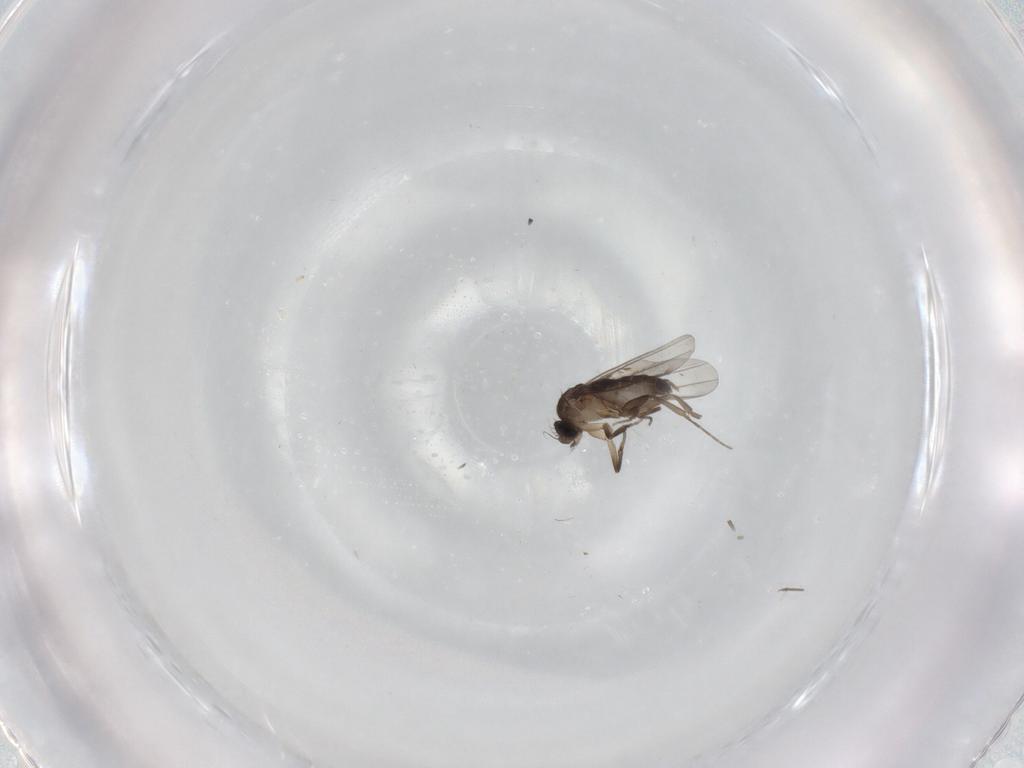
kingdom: Animalia
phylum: Arthropoda
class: Insecta
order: Diptera
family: Phoridae
